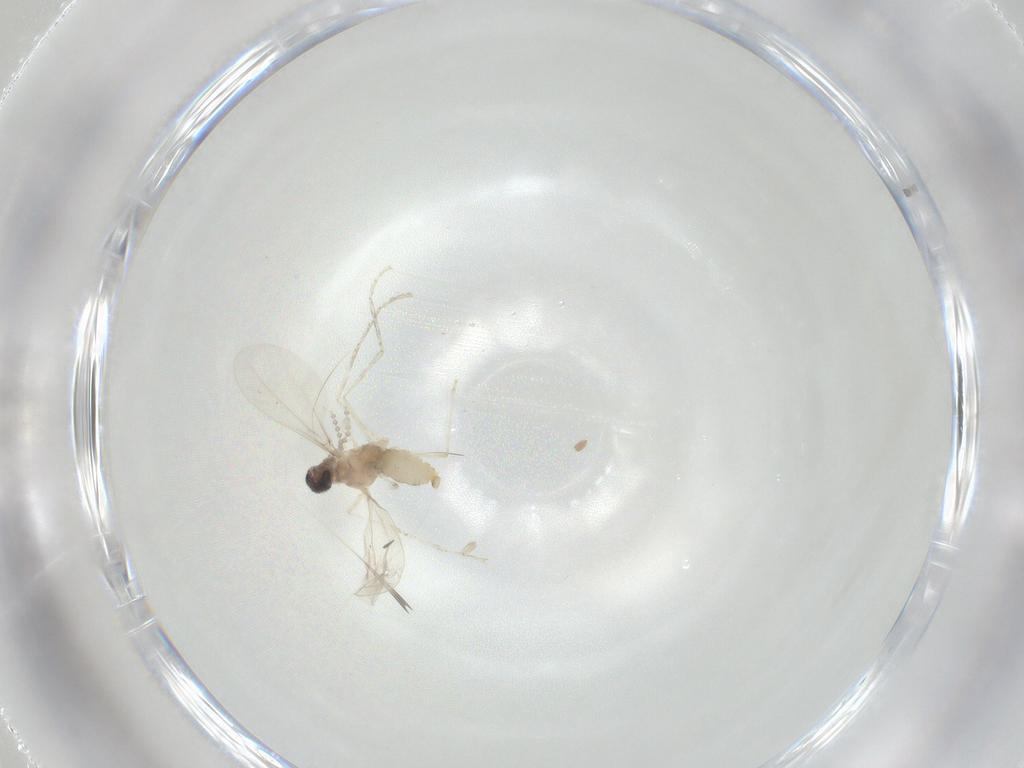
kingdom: Animalia
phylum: Arthropoda
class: Insecta
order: Diptera
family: Cecidomyiidae
